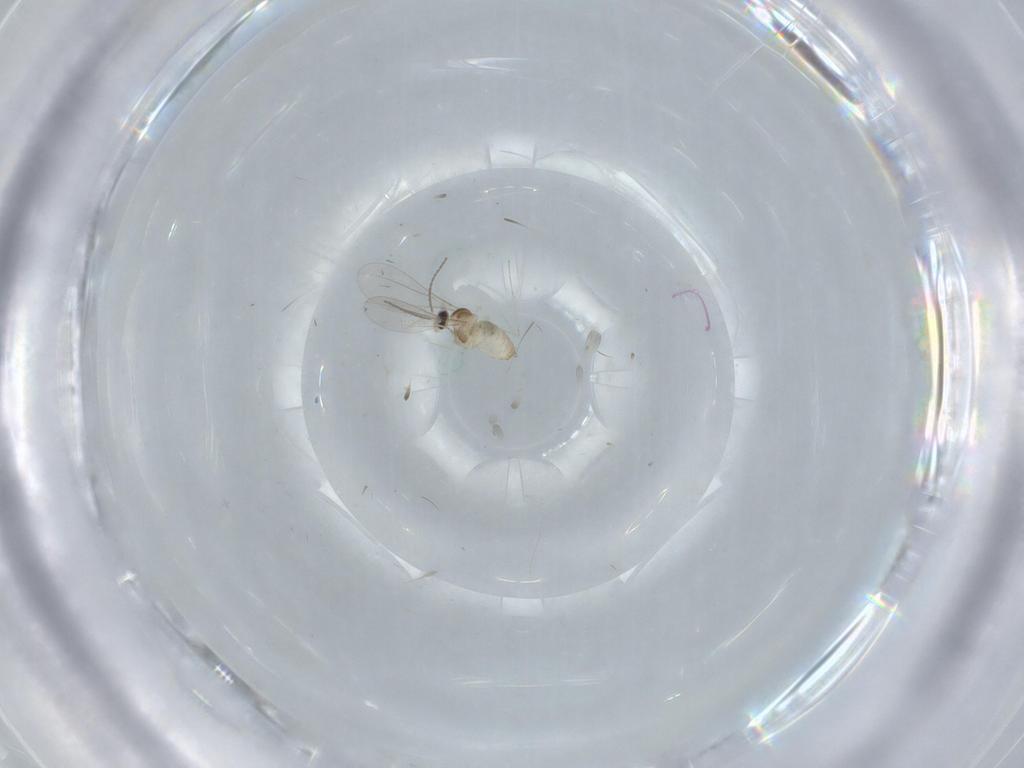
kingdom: Animalia
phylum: Arthropoda
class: Insecta
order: Diptera
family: Cecidomyiidae
